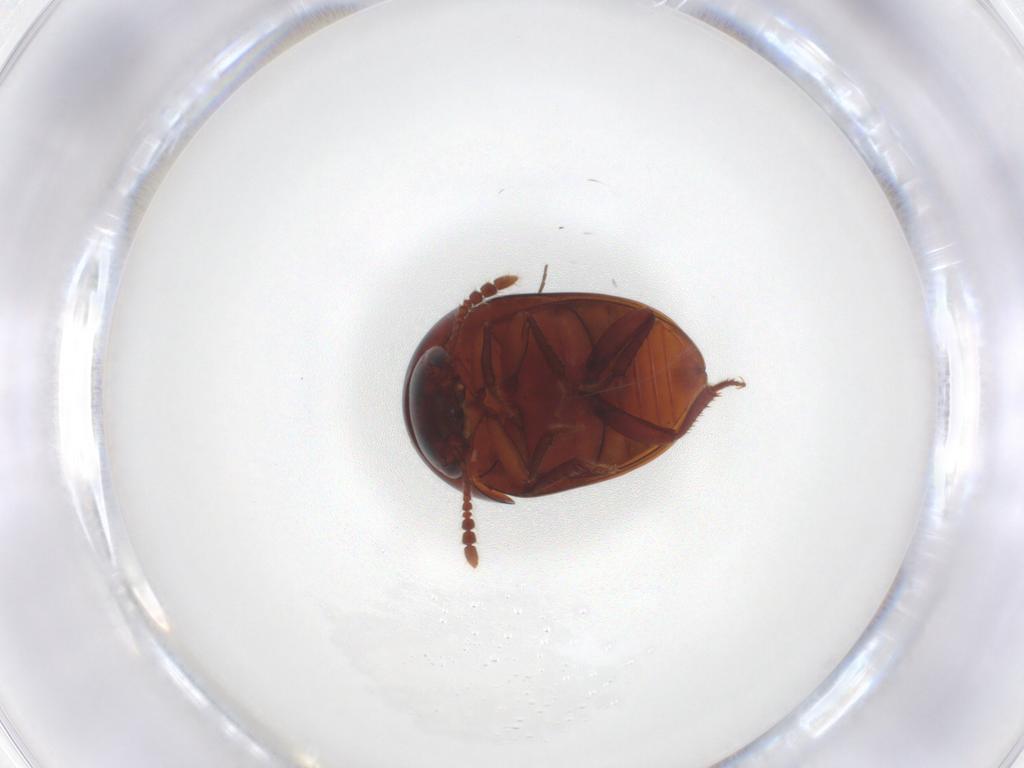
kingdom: Animalia
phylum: Arthropoda
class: Insecta
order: Coleoptera
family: Leiodidae
